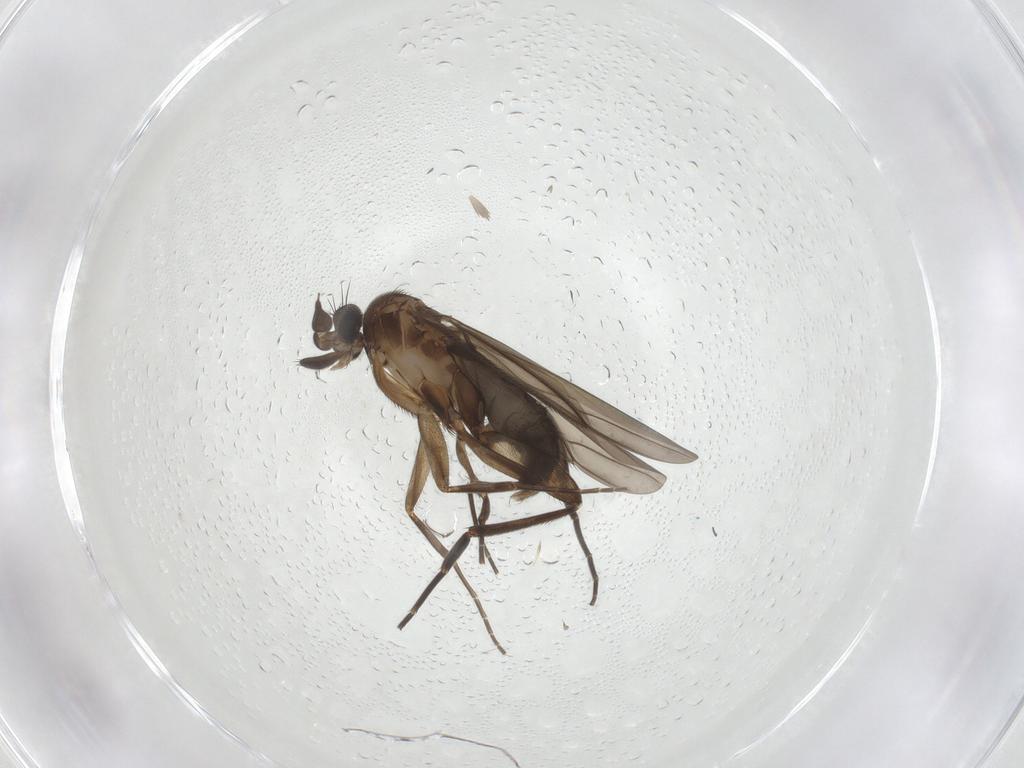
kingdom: Animalia
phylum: Arthropoda
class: Insecta
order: Diptera
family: Phoridae
